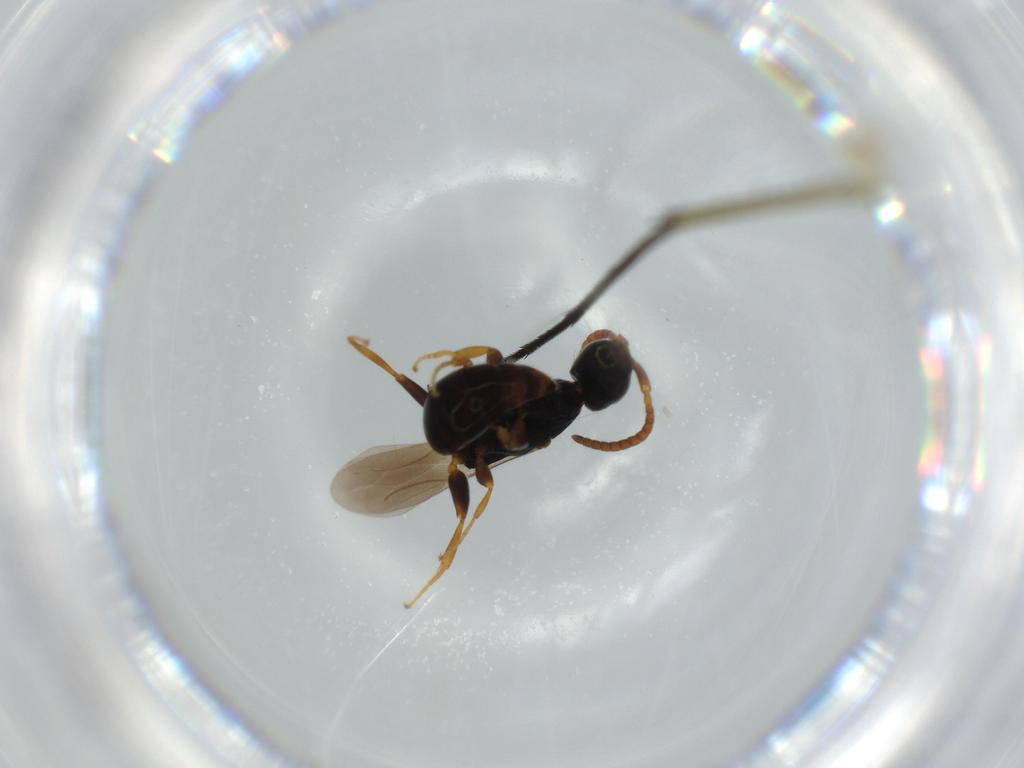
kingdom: Animalia
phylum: Arthropoda
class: Insecta
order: Hymenoptera
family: Bethylidae
